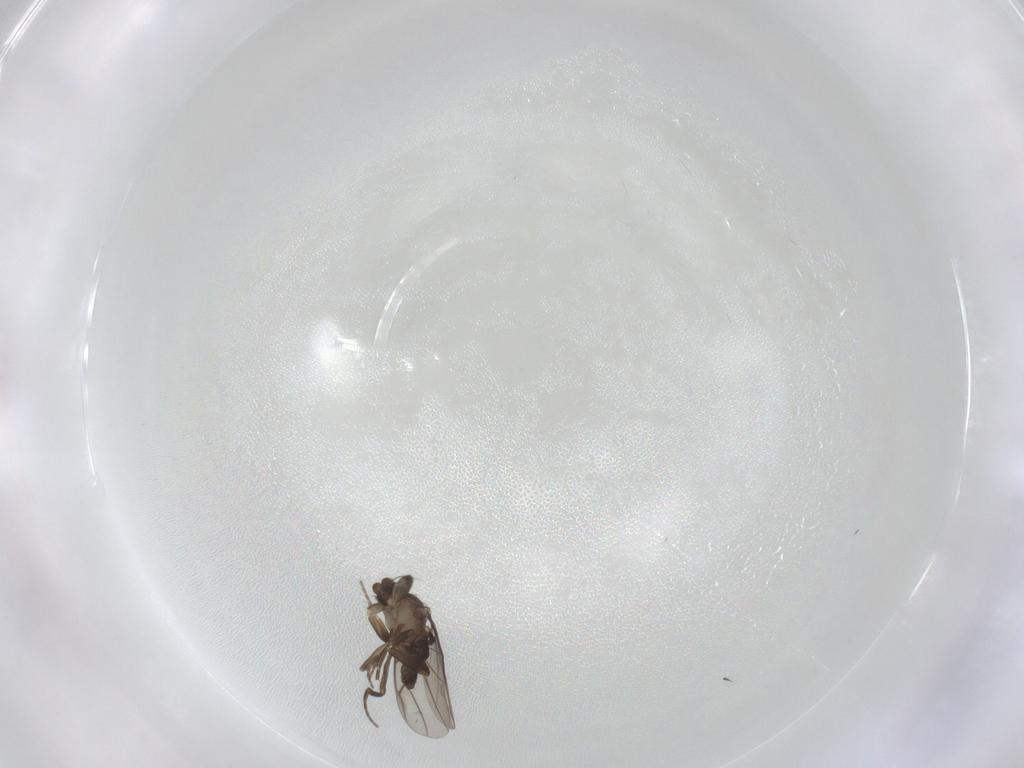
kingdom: Animalia
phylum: Arthropoda
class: Insecta
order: Diptera
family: Phoridae
